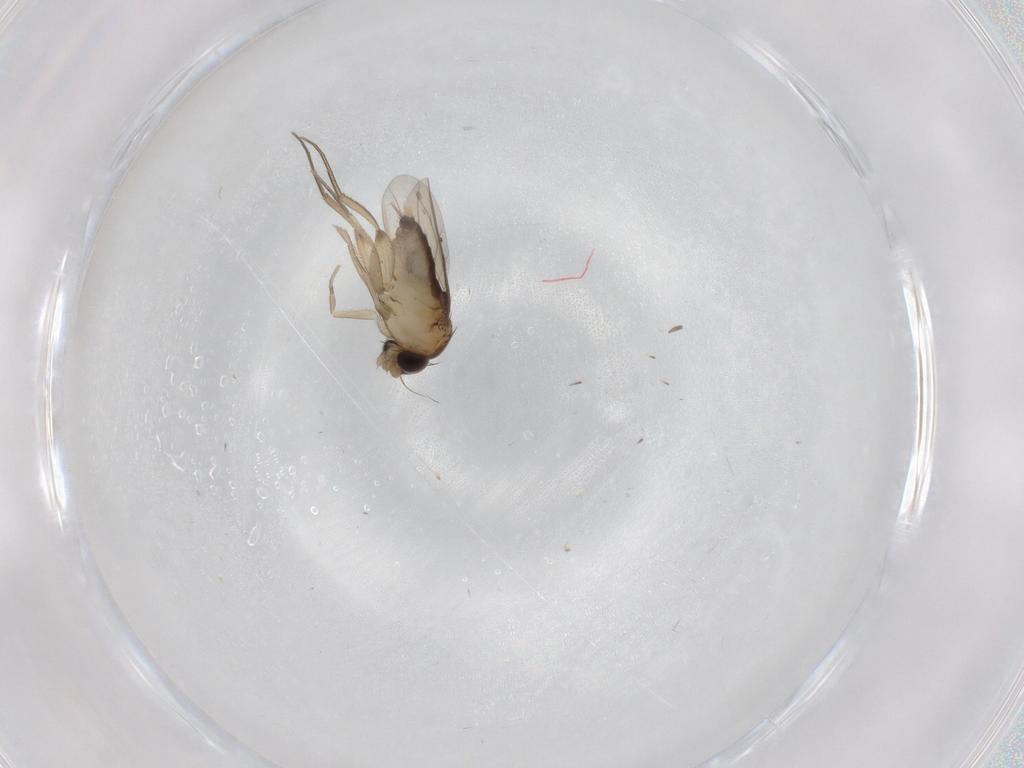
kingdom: Animalia
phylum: Arthropoda
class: Insecta
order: Diptera
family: Phoridae
